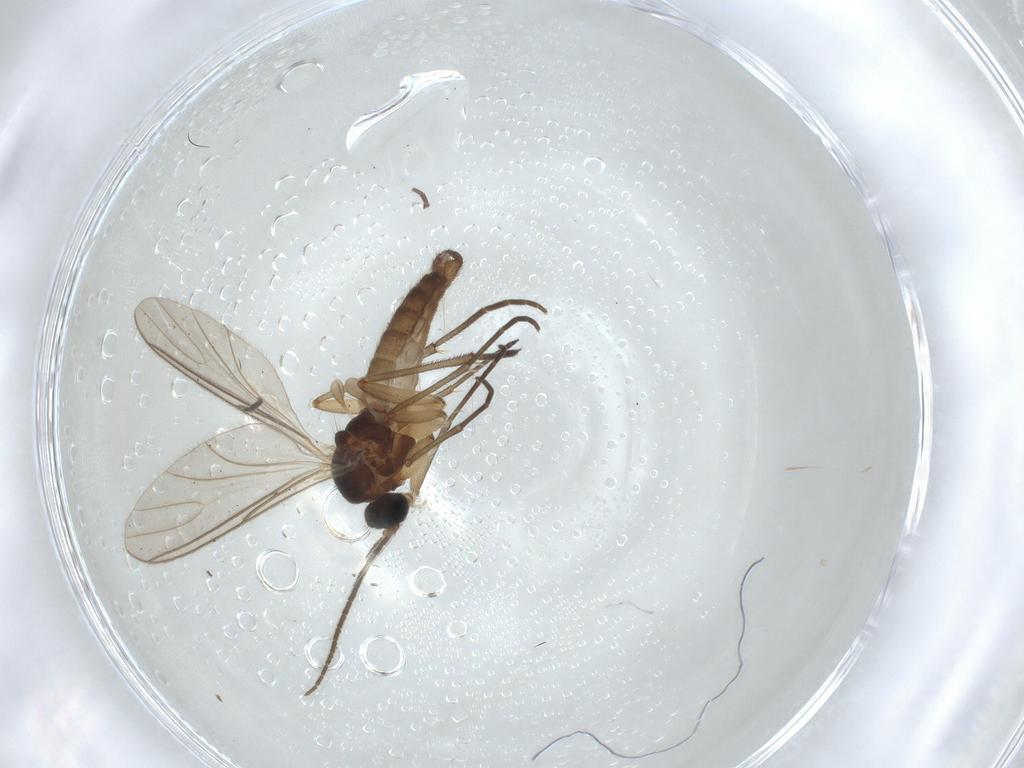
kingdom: Animalia
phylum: Arthropoda
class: Insecta
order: Diptera
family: Sciaridae
